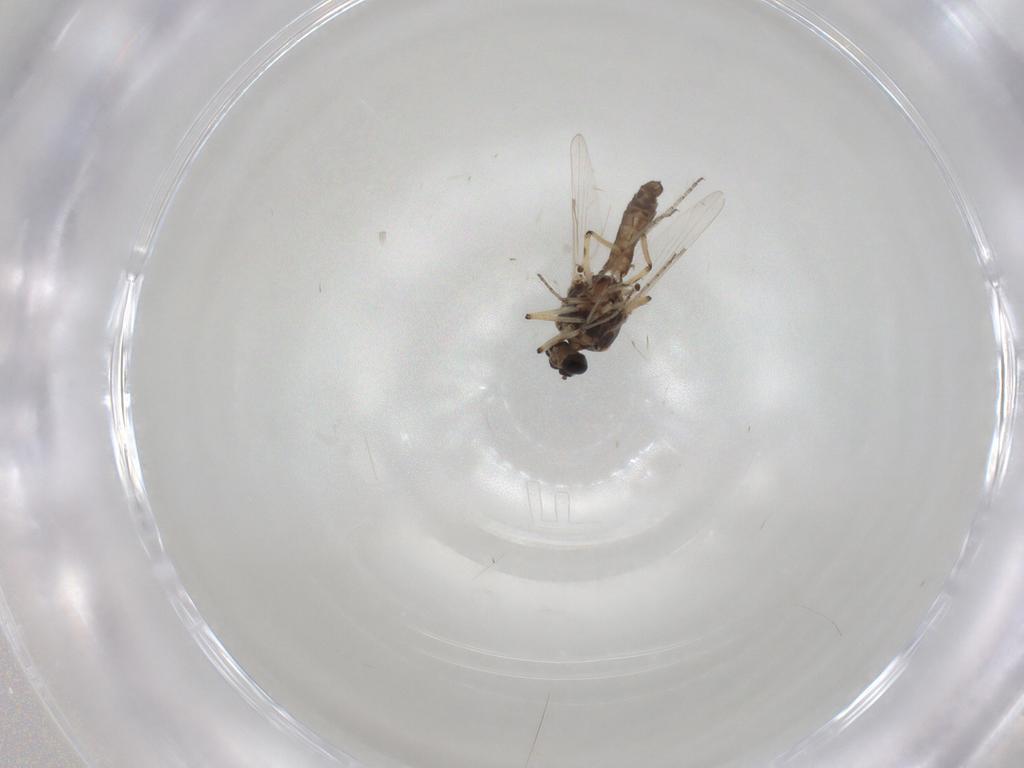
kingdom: Animalia
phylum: Arthropoda
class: Insecta
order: Diptera
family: Ceratopogonidae
